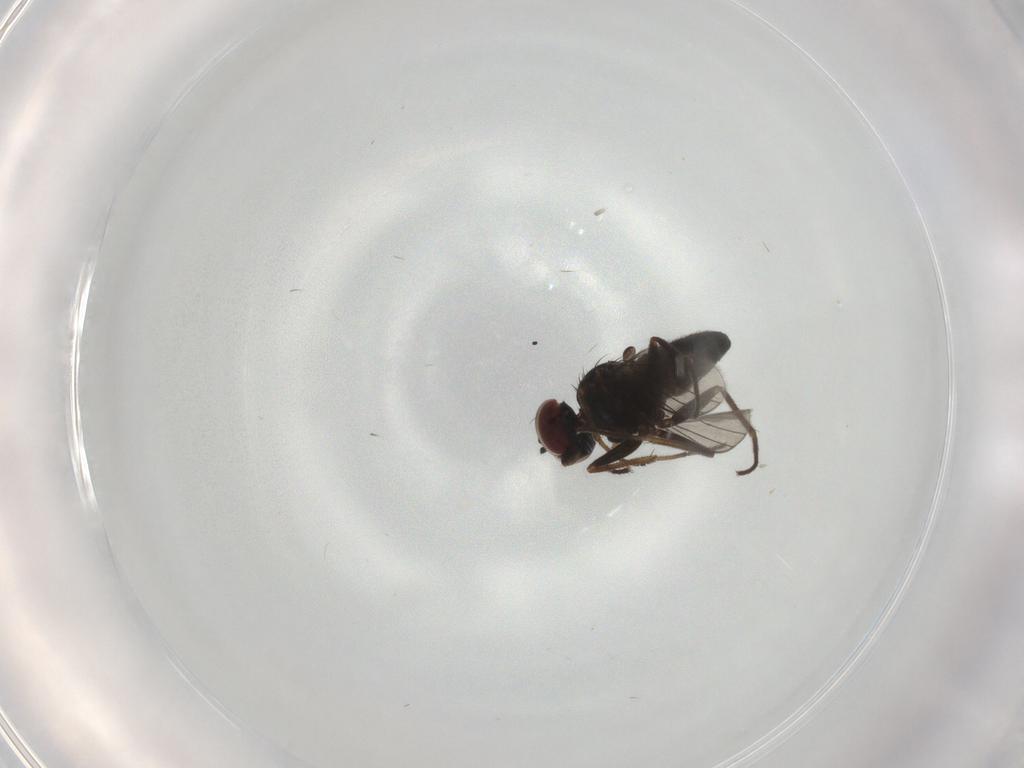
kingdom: Animalia
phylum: Arthropoda
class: Insecta
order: Diptera
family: Dolichopodidae
